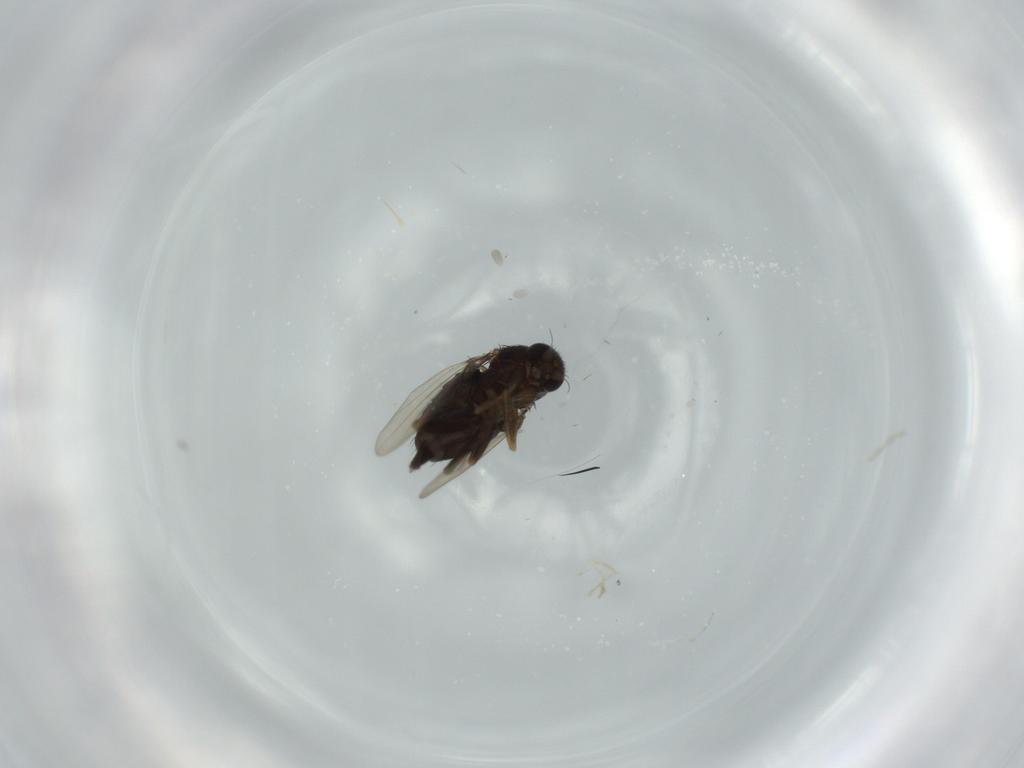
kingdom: Animalia
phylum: Arthropoda
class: Insecta
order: Diptera
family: Phoridae
